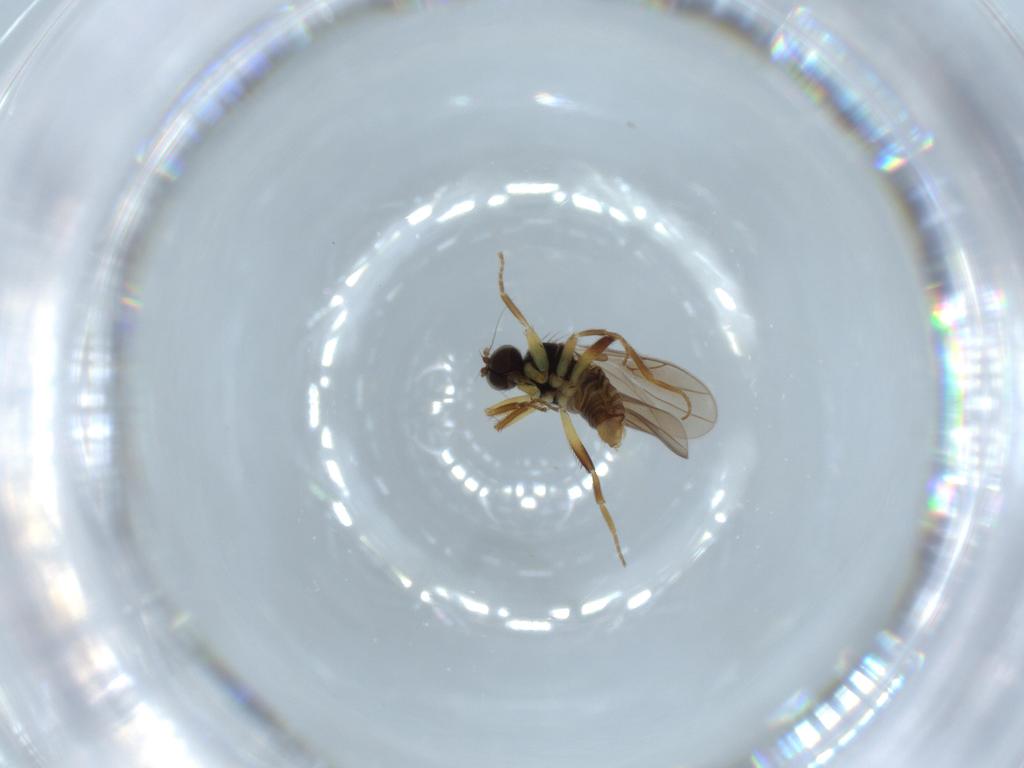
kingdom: Animalia
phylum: Arthropoda
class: Insecta
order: Diptera
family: Hybotidae
